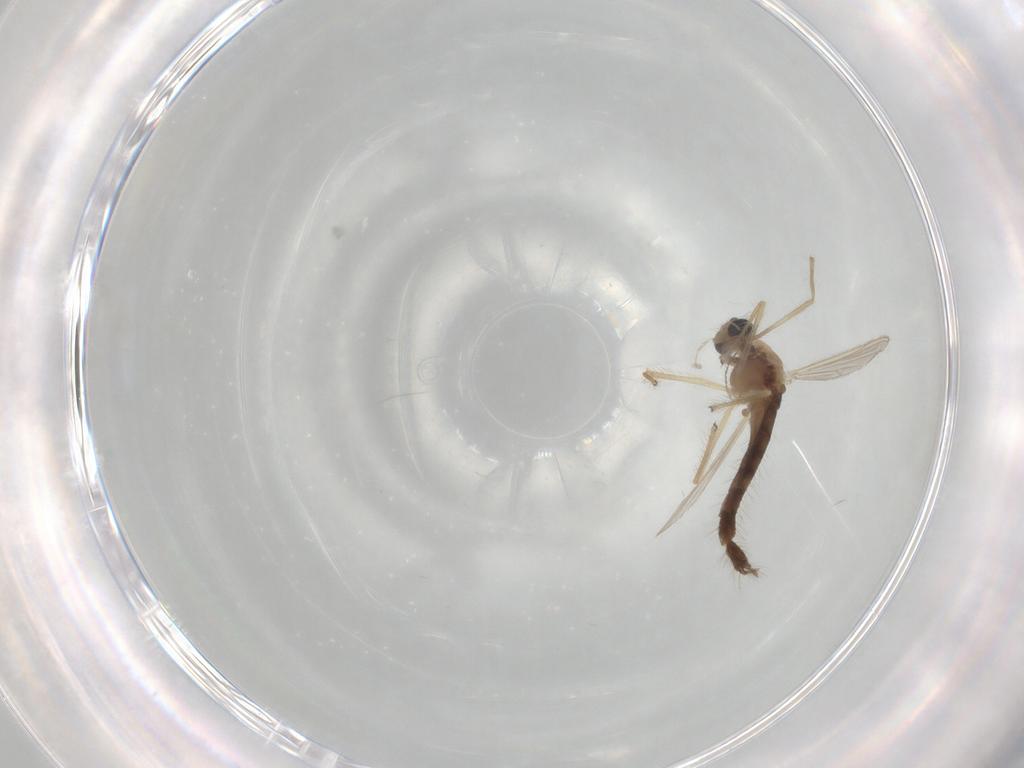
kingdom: Animalia
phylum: Arthropoda
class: Insecta
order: Diptera
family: Chironomidae
